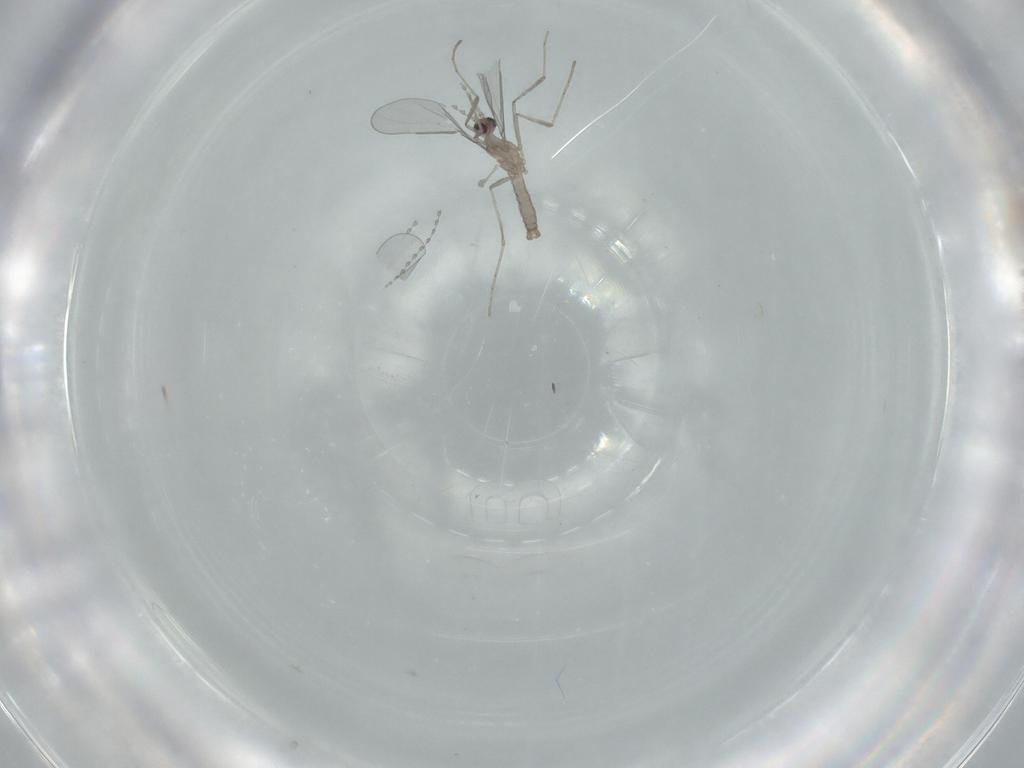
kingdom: Animalia
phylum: Arthropoda
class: Insecta
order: Diptera
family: Cecidomyiidae
